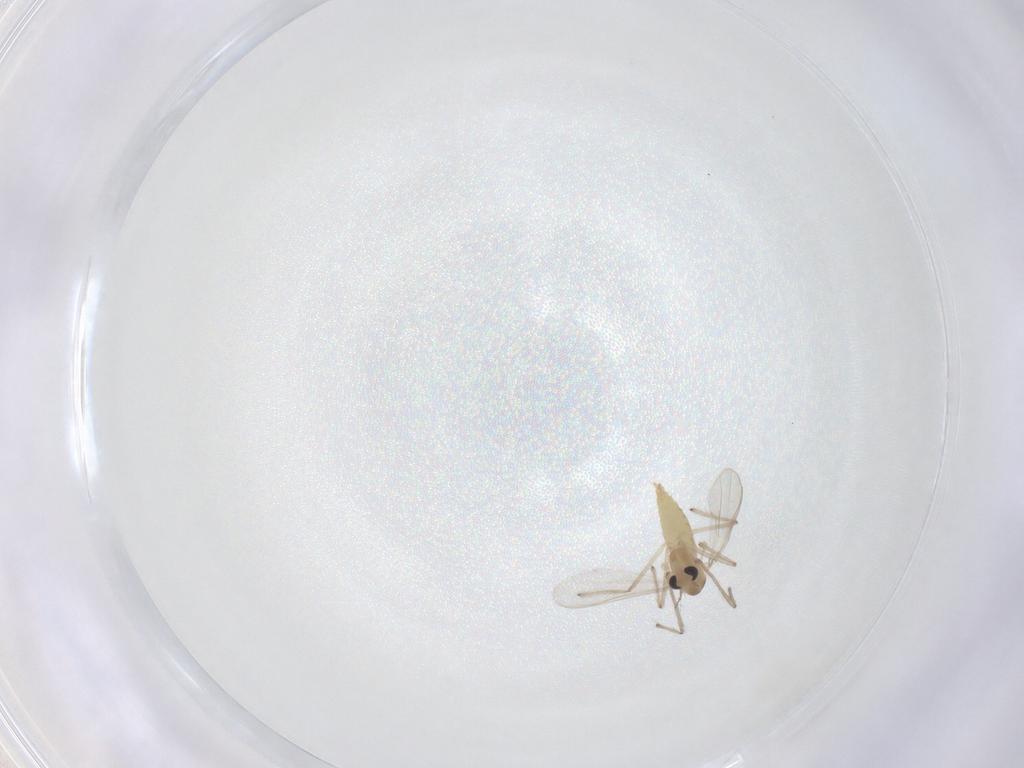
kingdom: Animalia
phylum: Arthropoda
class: Insecta
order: Diptera
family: Chironomidae
